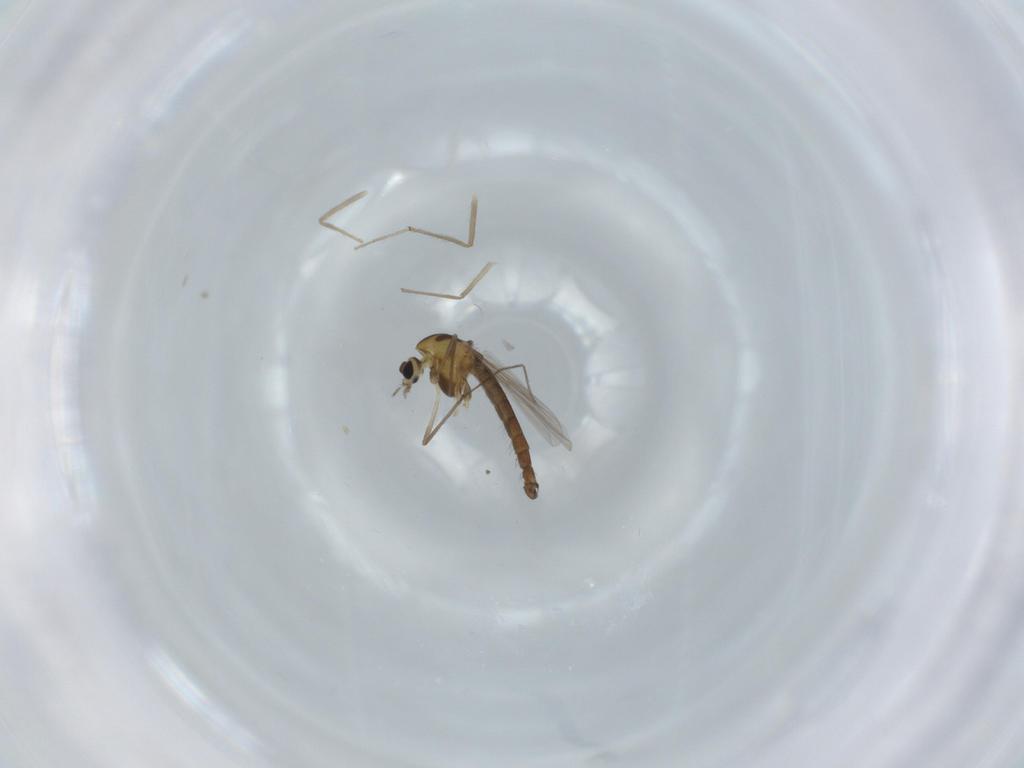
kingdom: Animalia
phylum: Arthropoda
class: Insecta
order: Diptera
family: Chironomidae
